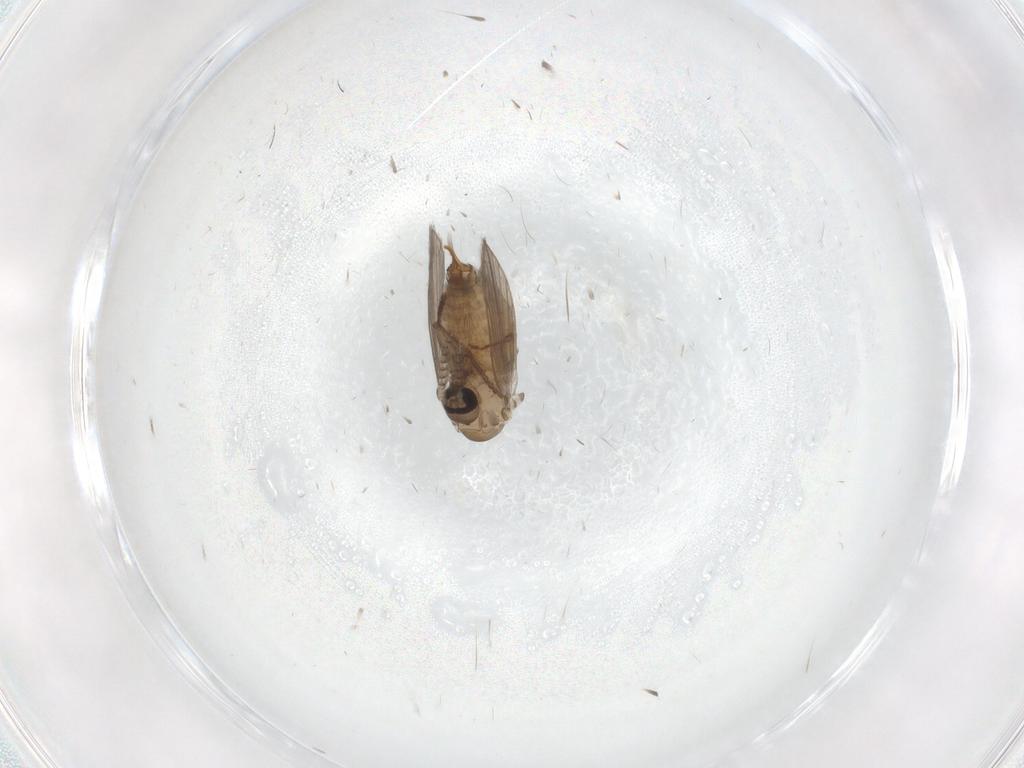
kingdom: Animalia
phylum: Arthropoda
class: Insecta
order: Diptera
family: Psychodidae
